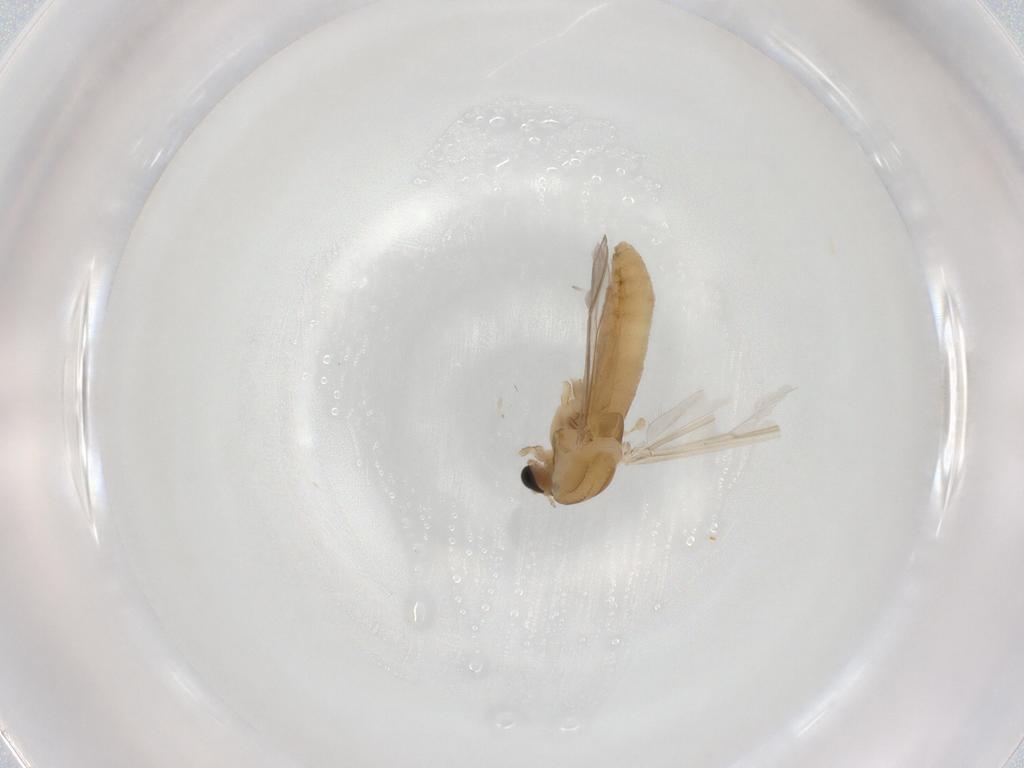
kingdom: Animalia
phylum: Arthropoda
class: Insecta
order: Diptera
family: Chironomidae
